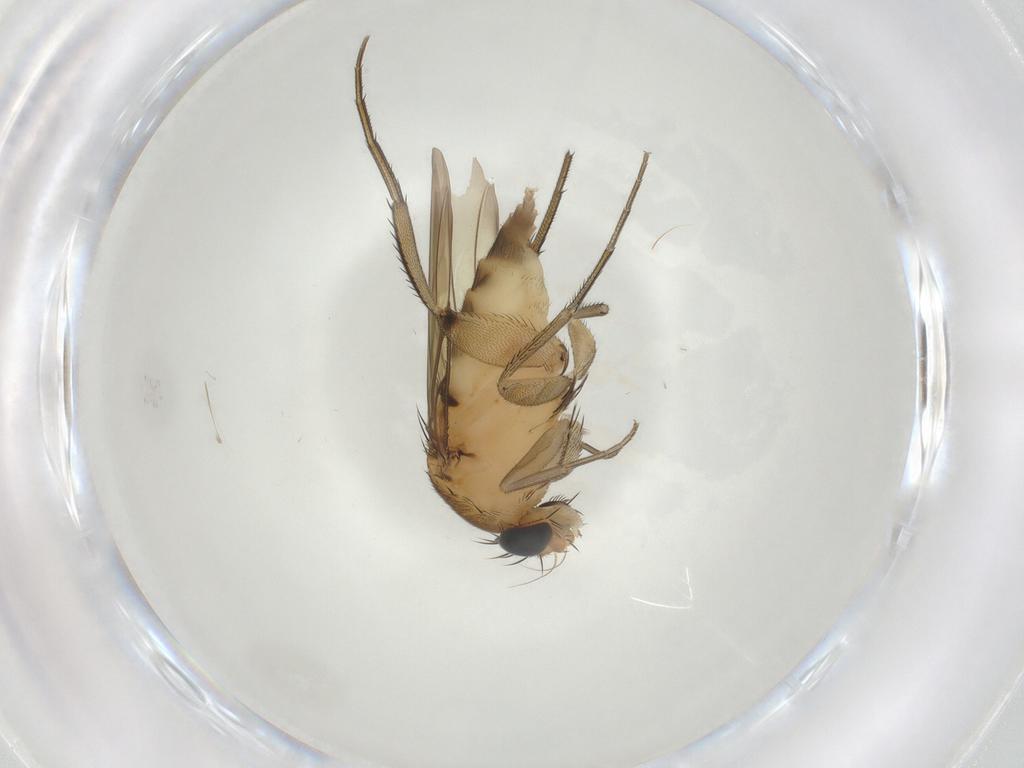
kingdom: Animalia
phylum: Arthropoda
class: Insecta
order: Diptera
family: Phoridae
